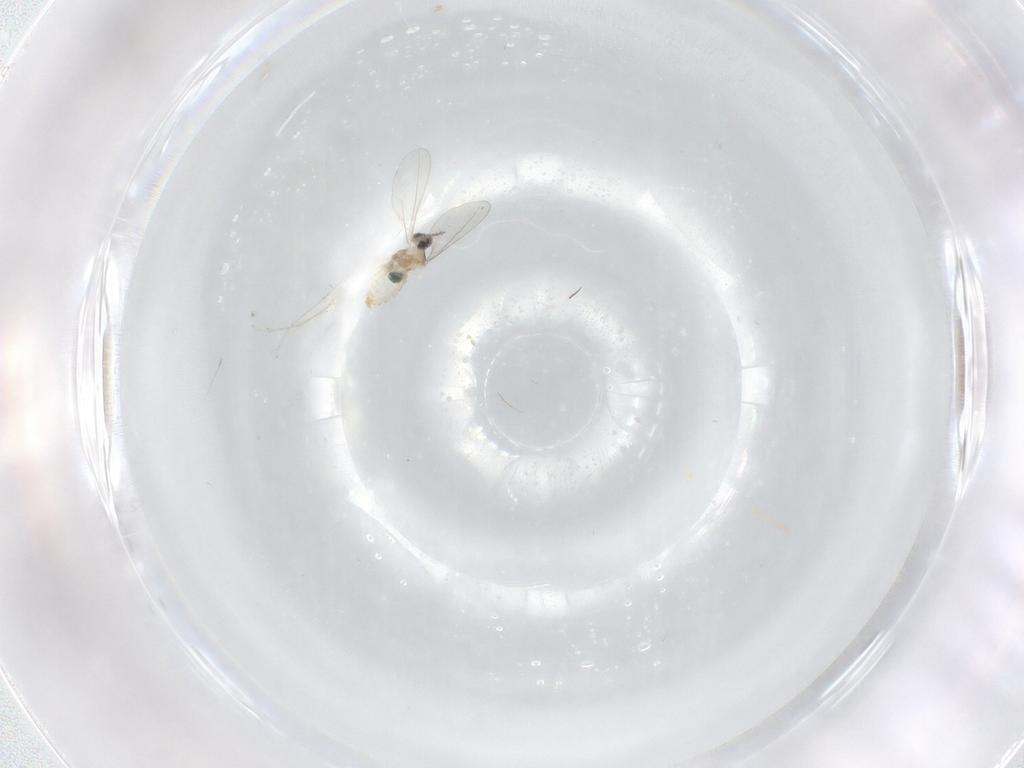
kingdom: Animalia
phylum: Arthropoda
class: Insecta
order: Diptera
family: Cecidomyiidae
